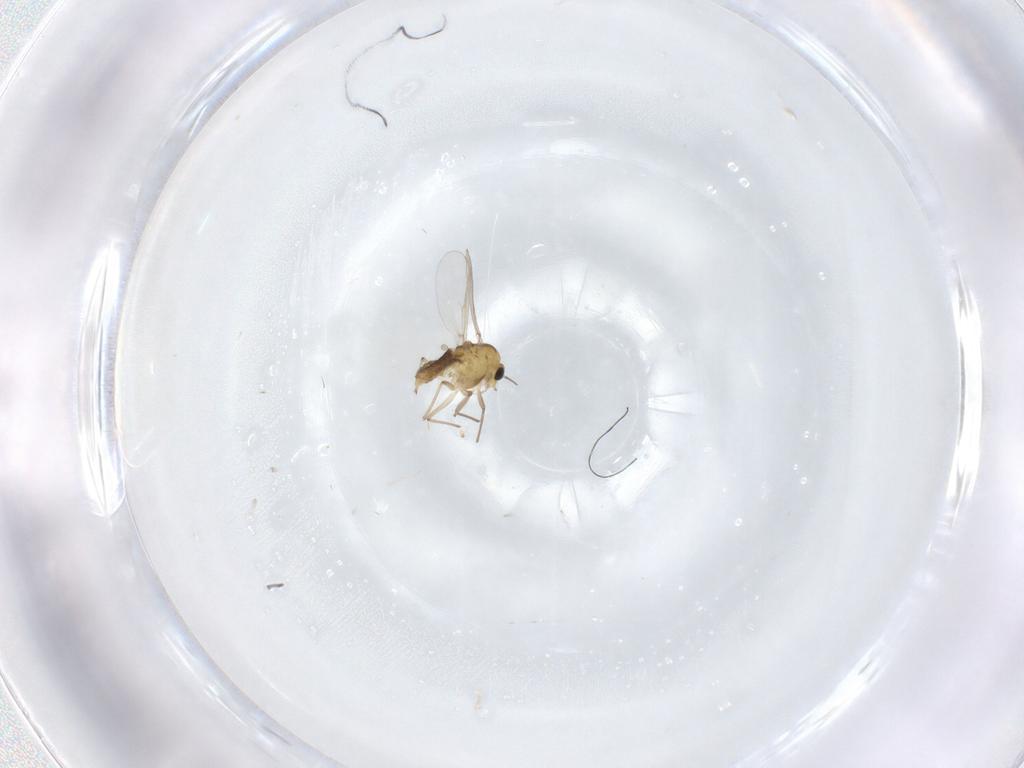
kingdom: Animalia
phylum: Arthropoda
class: Insecta
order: Diptera
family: Chironomidae
